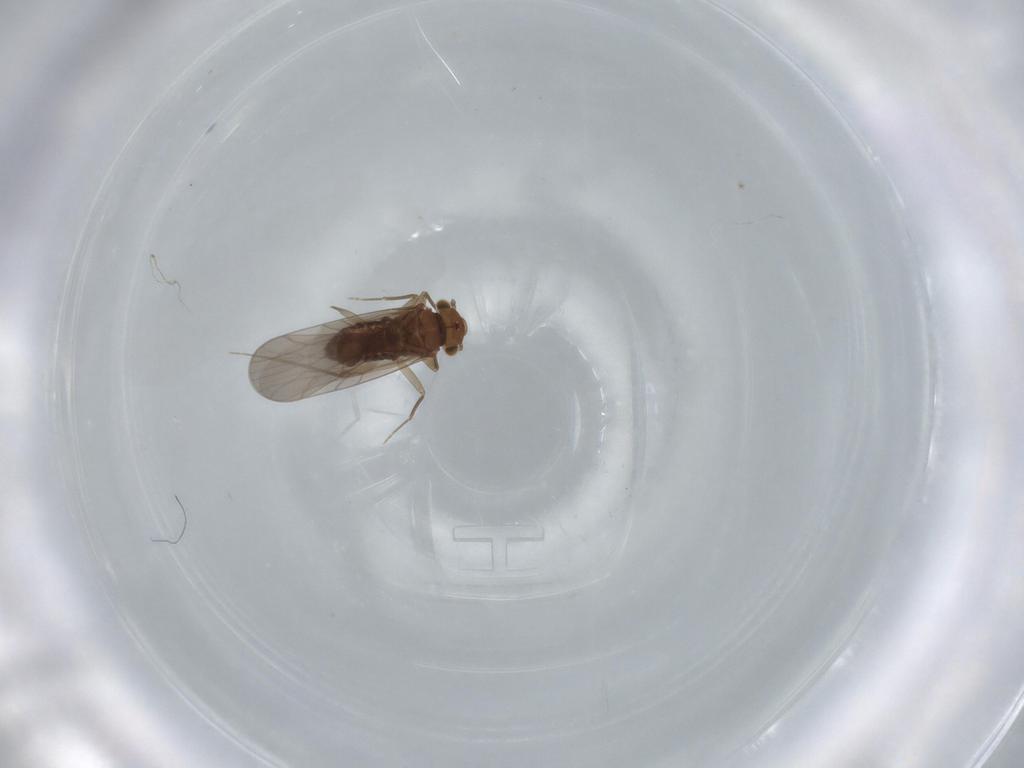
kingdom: Animalia
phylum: Arthropoda
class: Insecta
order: Psocodea
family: Lepidopsocidae
